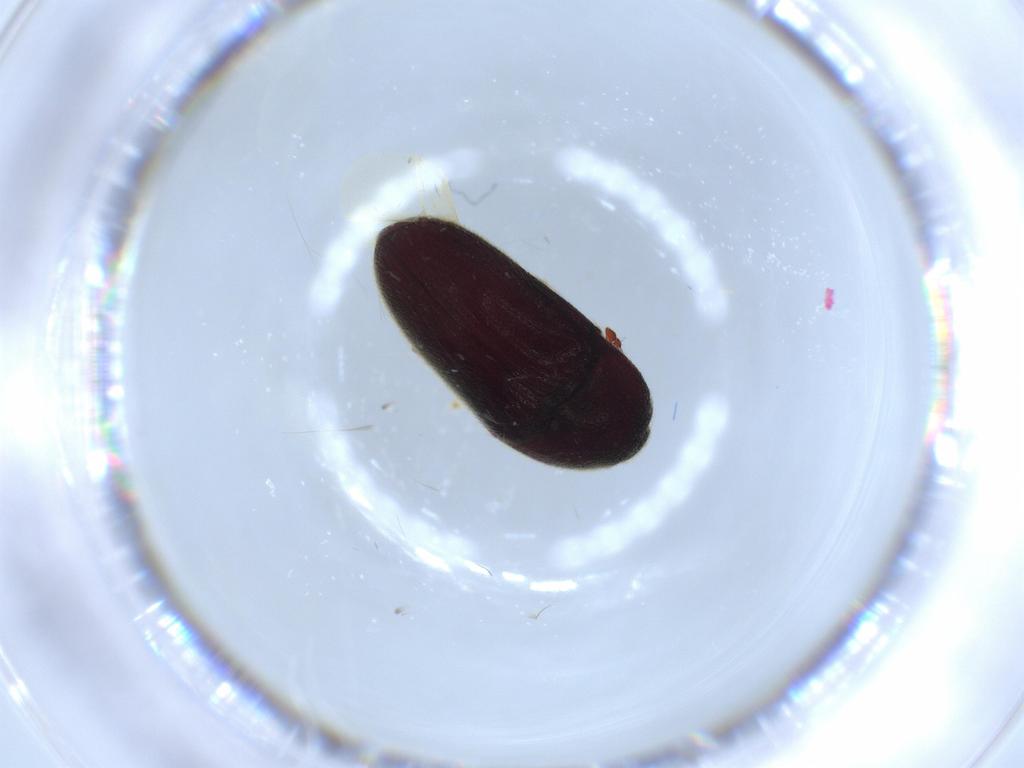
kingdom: Animalia
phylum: Arthropoda
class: Insecta
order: Coleoptera
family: Throscidae
